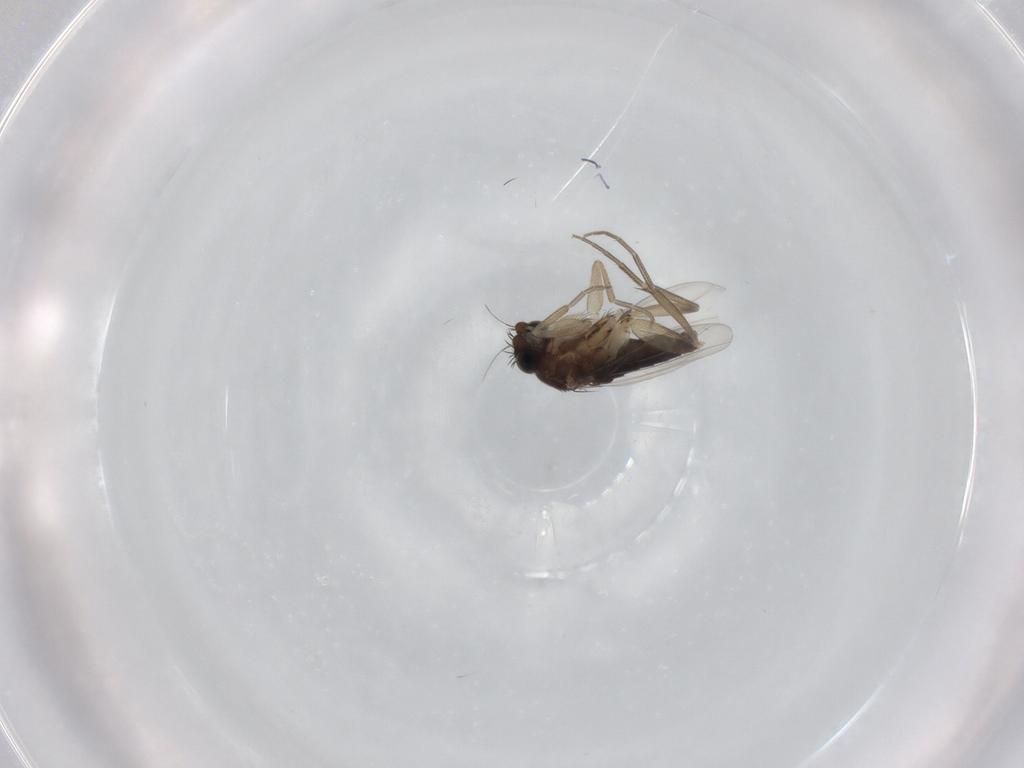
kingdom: Animalia
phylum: Arthropoda
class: Insecta
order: Diptera
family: Phoridae
